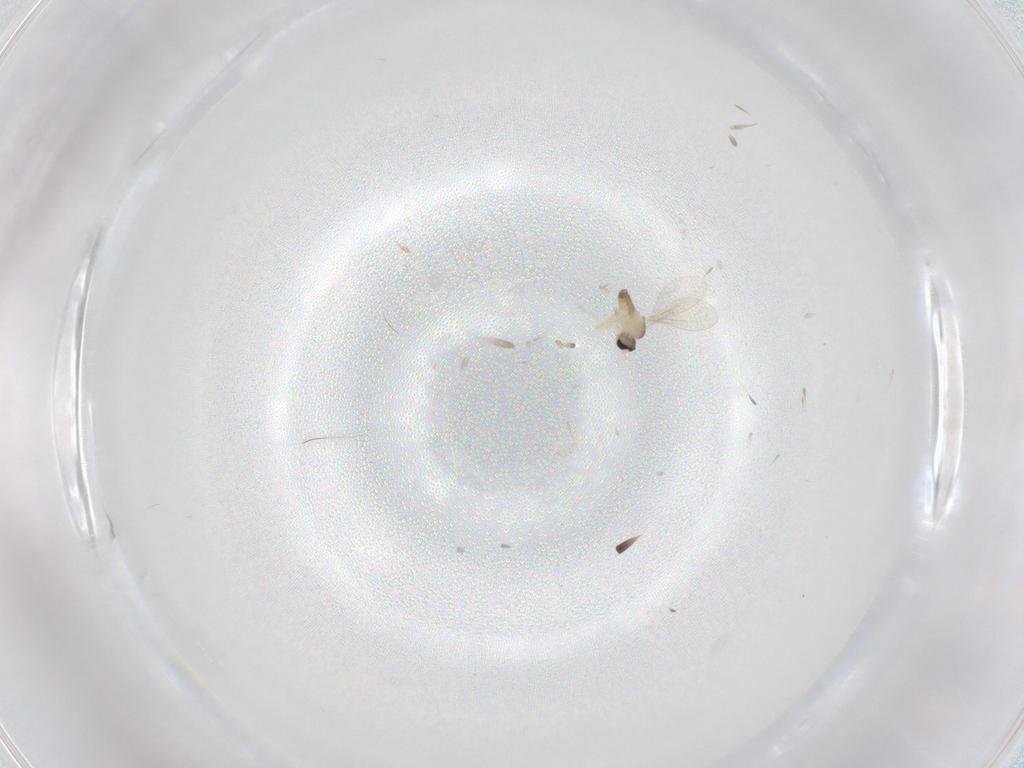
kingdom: Animalia
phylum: Arthropoda
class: Insecta
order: Diptera
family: Cecidomyiidae
